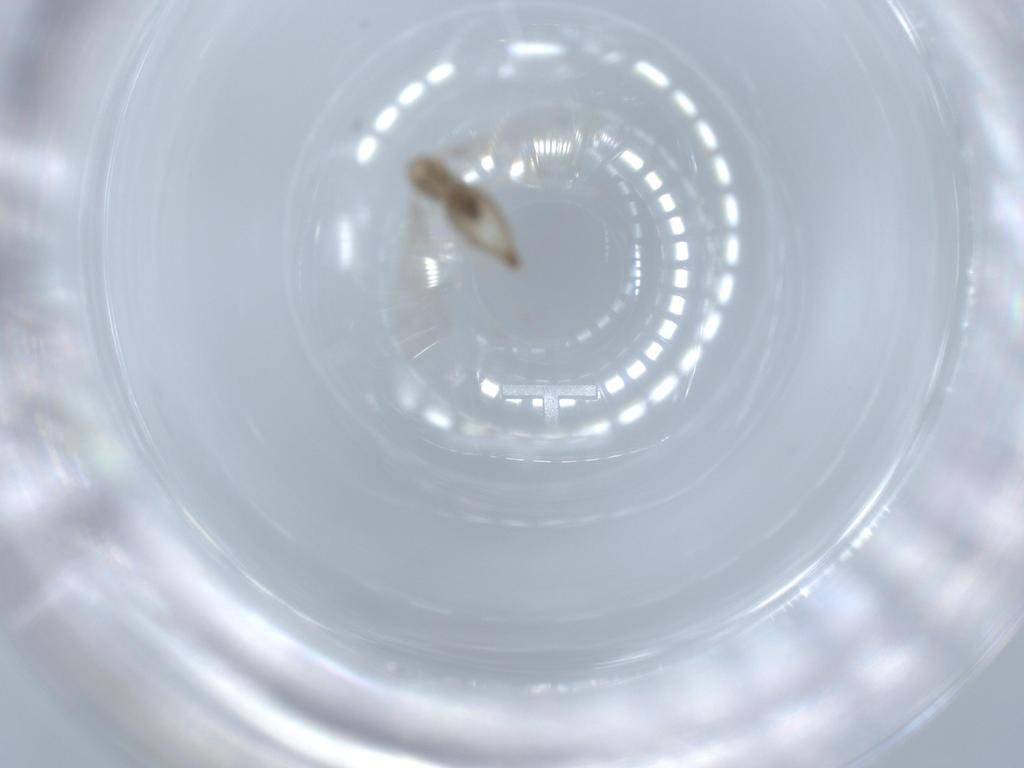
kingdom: Animalia
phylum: Arthropoda
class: Insecta
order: Diptera
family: Cecidomyiidae
